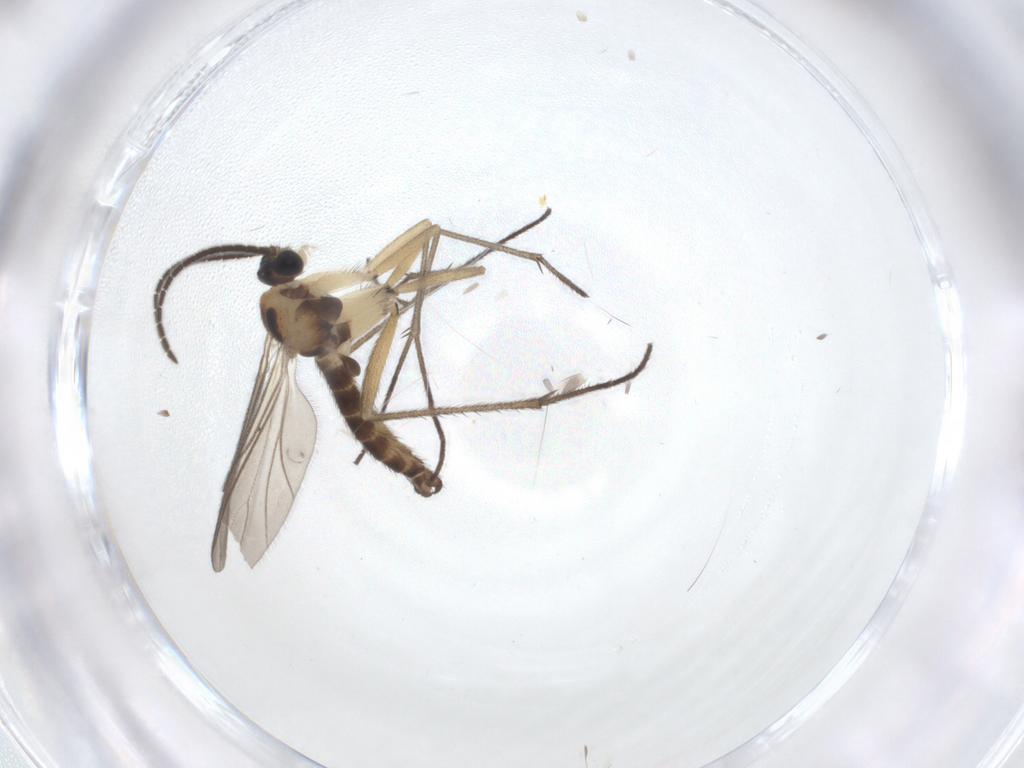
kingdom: Animalia
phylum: Arthropoda
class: Insecta
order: Diptera
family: Sciaridae
